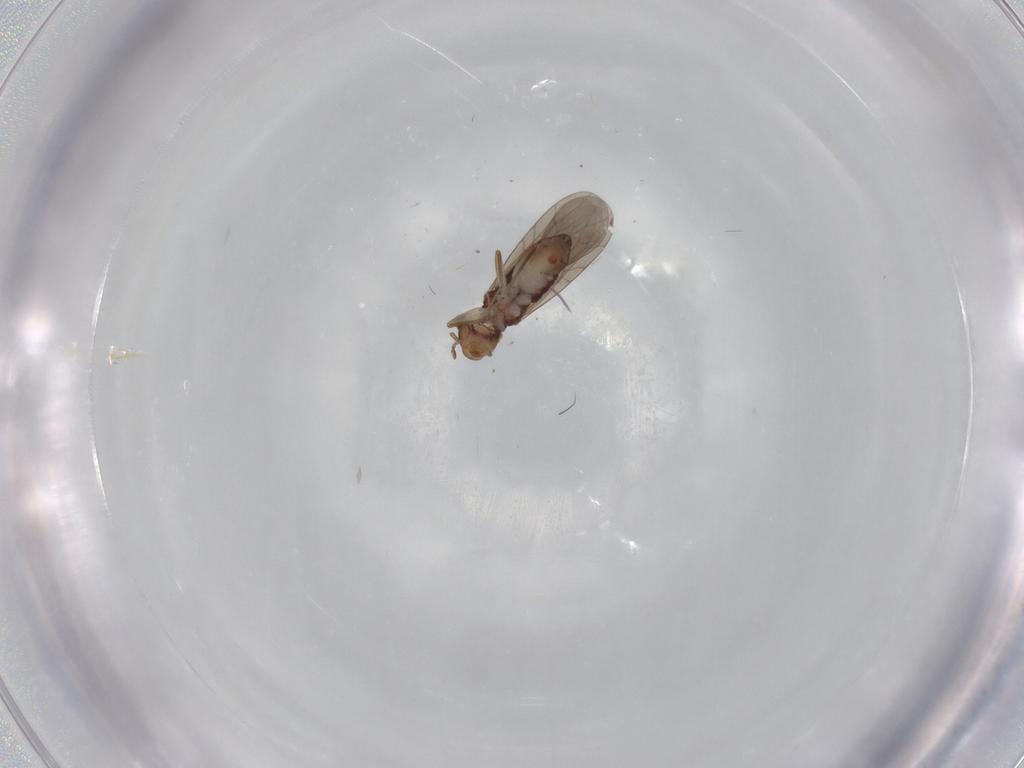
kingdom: Animalia
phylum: Arthropoda
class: Insecta
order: Psocodea
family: Lepidopsocidae
